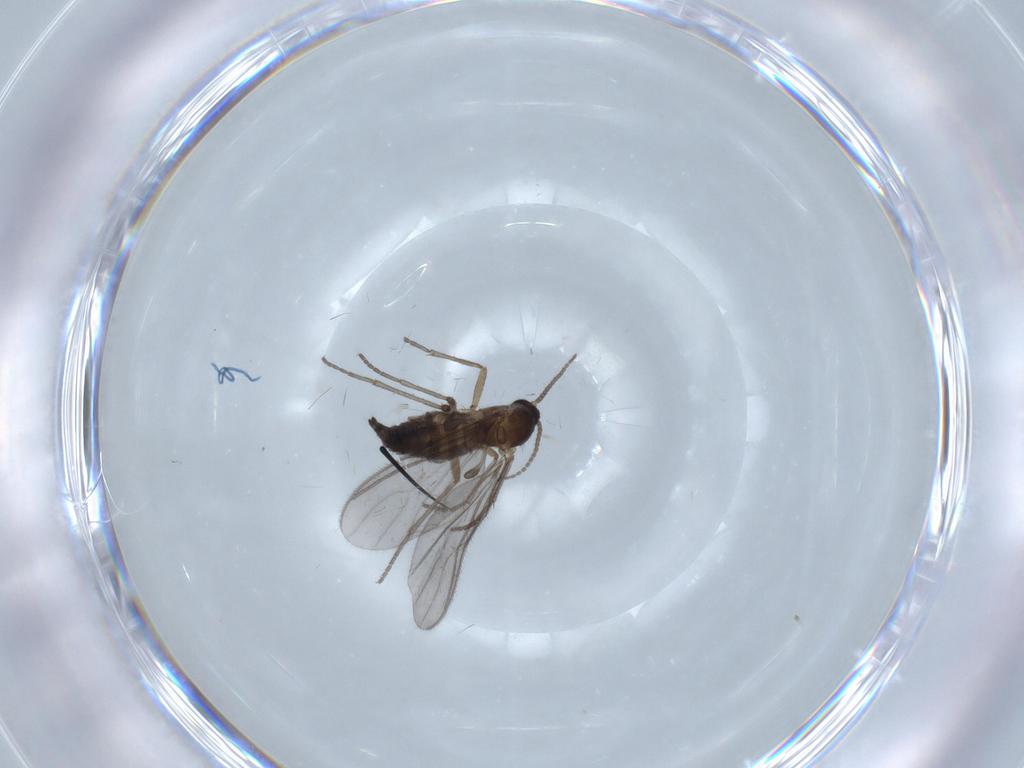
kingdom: Animalia
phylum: Arthropoda
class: Insecta
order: Diptera
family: Sciaridae
